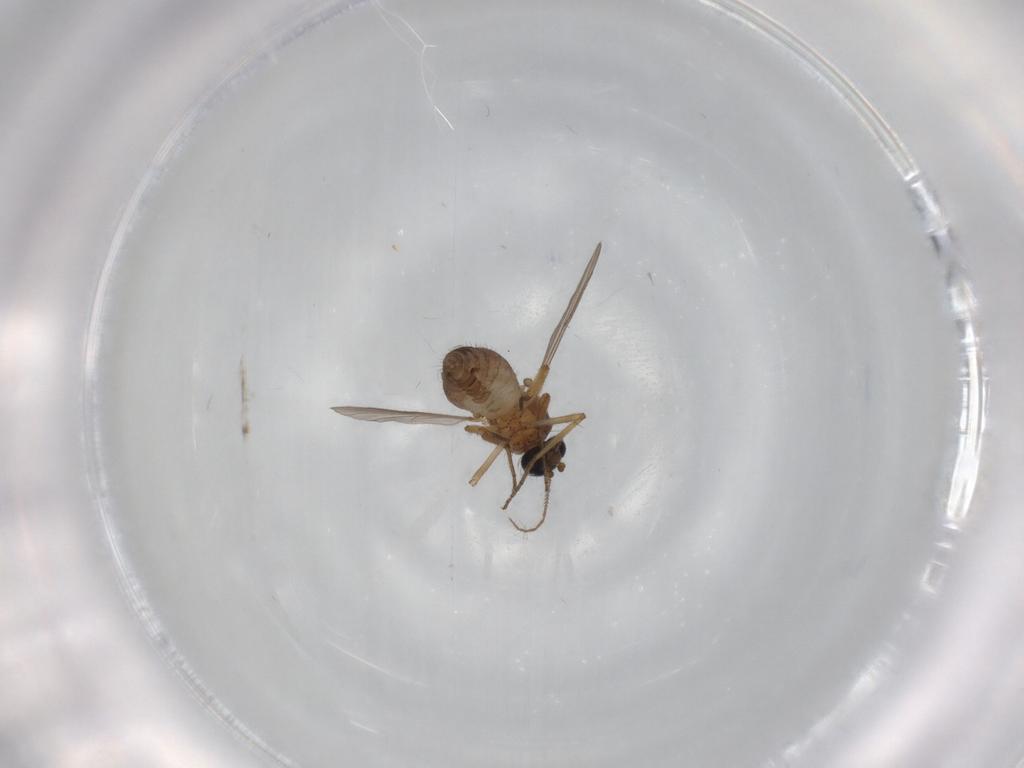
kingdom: Animalia
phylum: Arthropoda
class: Insecta
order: Diptera
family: Ceratopogonidae
